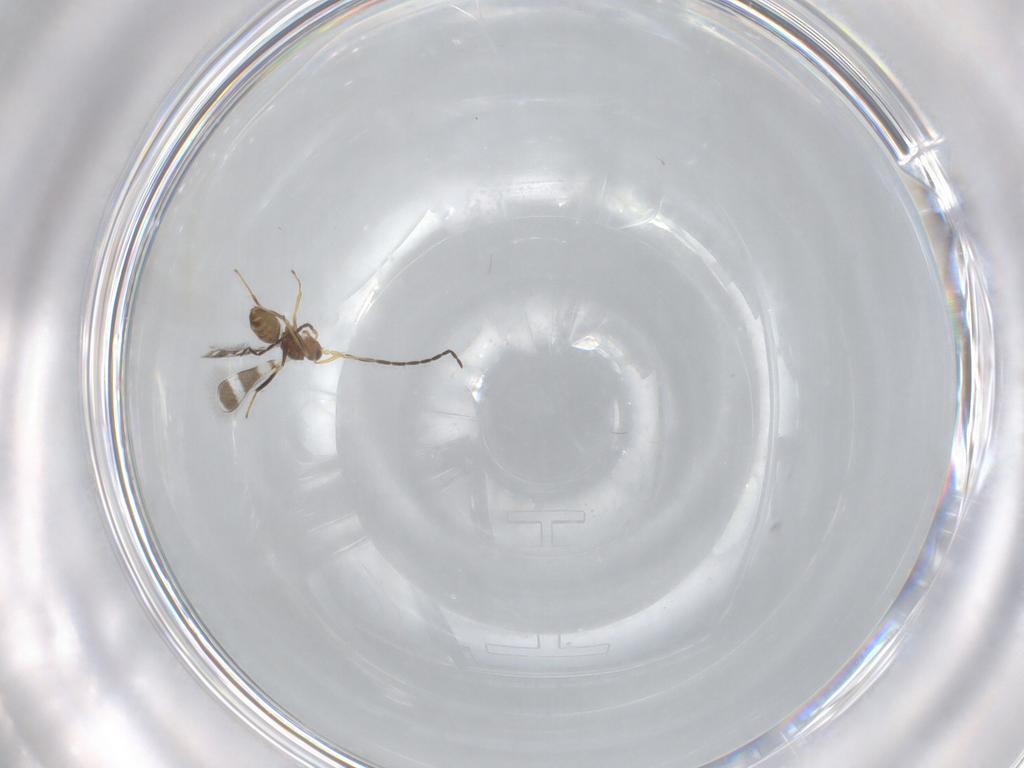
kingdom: Animalia
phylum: Arthropoda
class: Insecta
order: Hymenoptera
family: Mymaridae
